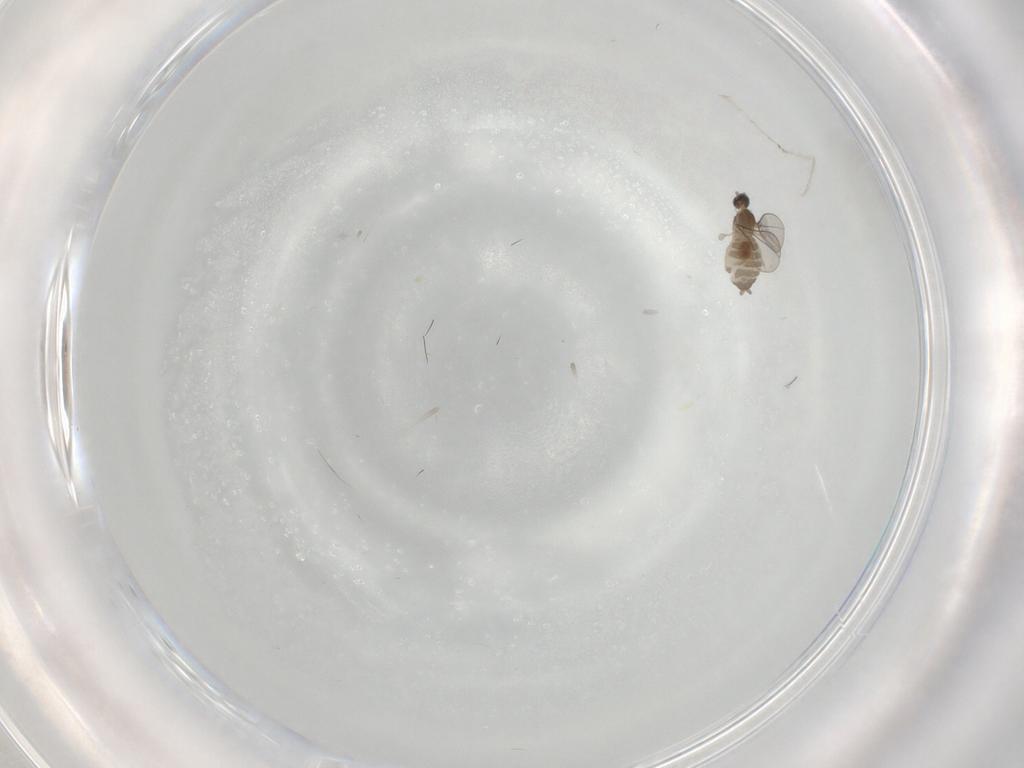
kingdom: Animalia
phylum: Arthropoda
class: Insecta
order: Diptera
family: Cecidomyiidae
